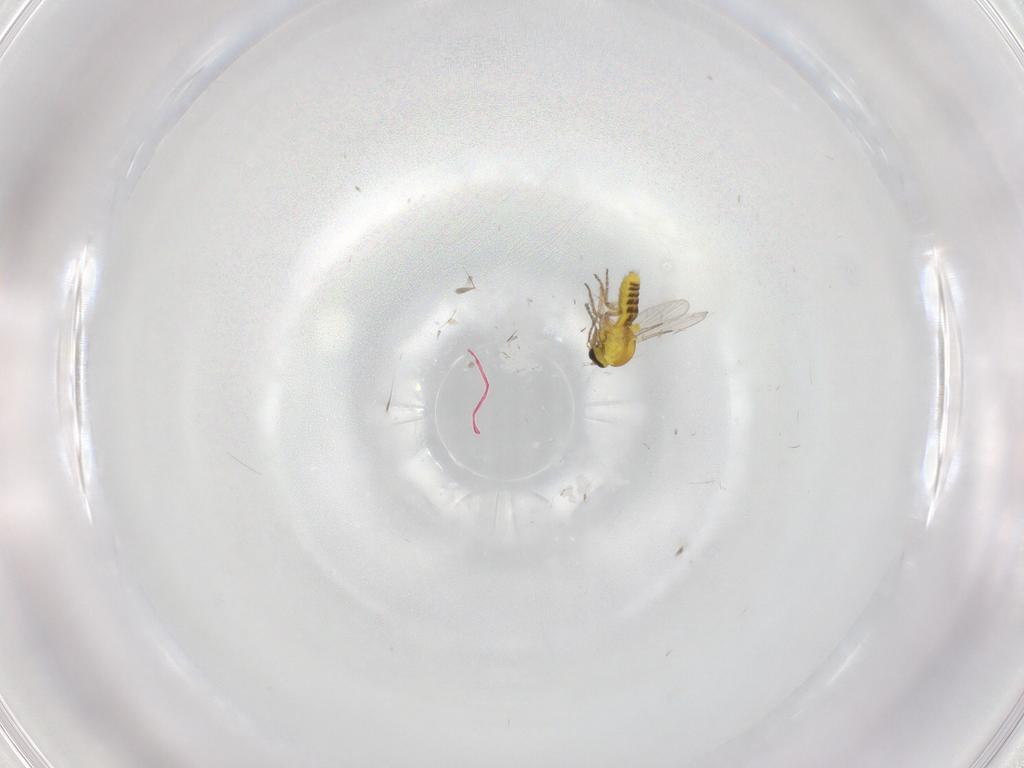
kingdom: Animalia
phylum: Arthropoda
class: Insecta
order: Diptera
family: Ceratopogonidae
